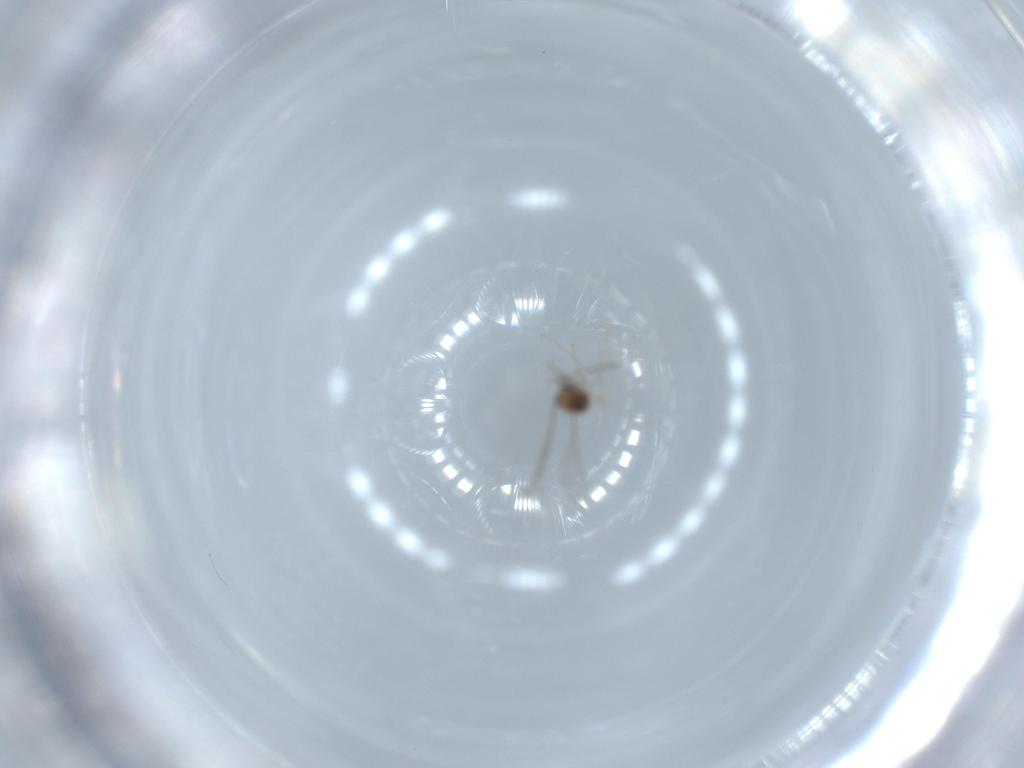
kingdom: Animalia
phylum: Arthropoda
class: Insecta
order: Diptera
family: Cecidomyiidae
